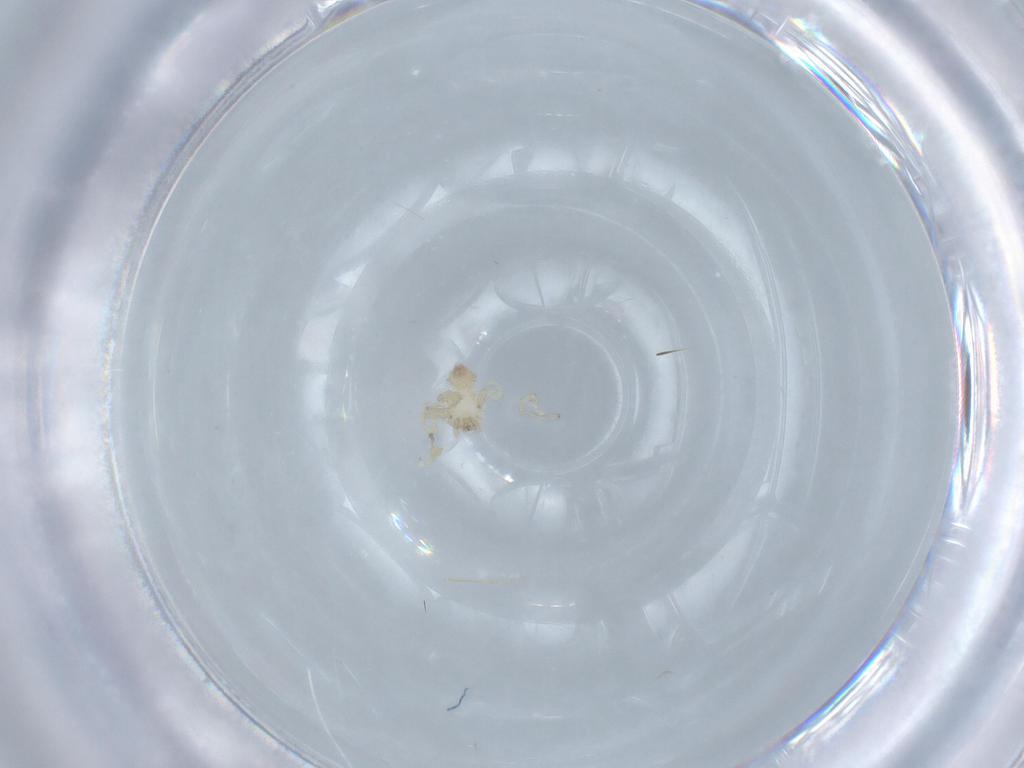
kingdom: Animalia
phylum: Arthropoda
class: Arachnida
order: Araneae
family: Oonopidae
